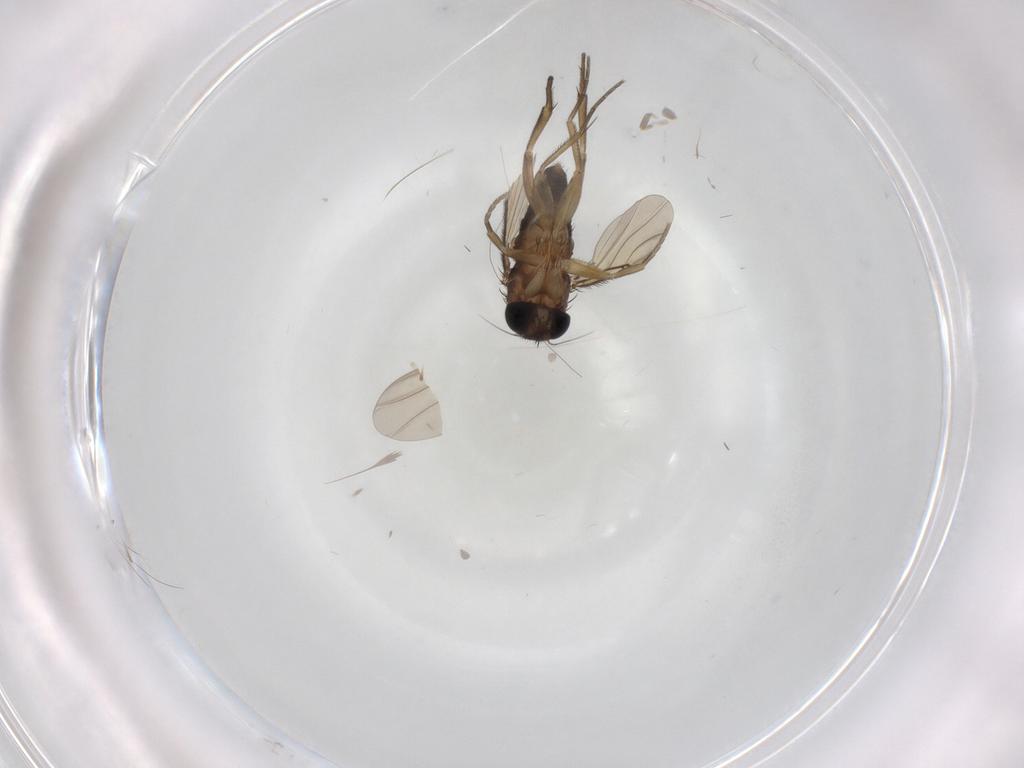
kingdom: Animalia
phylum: Arthropoda
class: Insecta
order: Diptera
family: Phoridae
